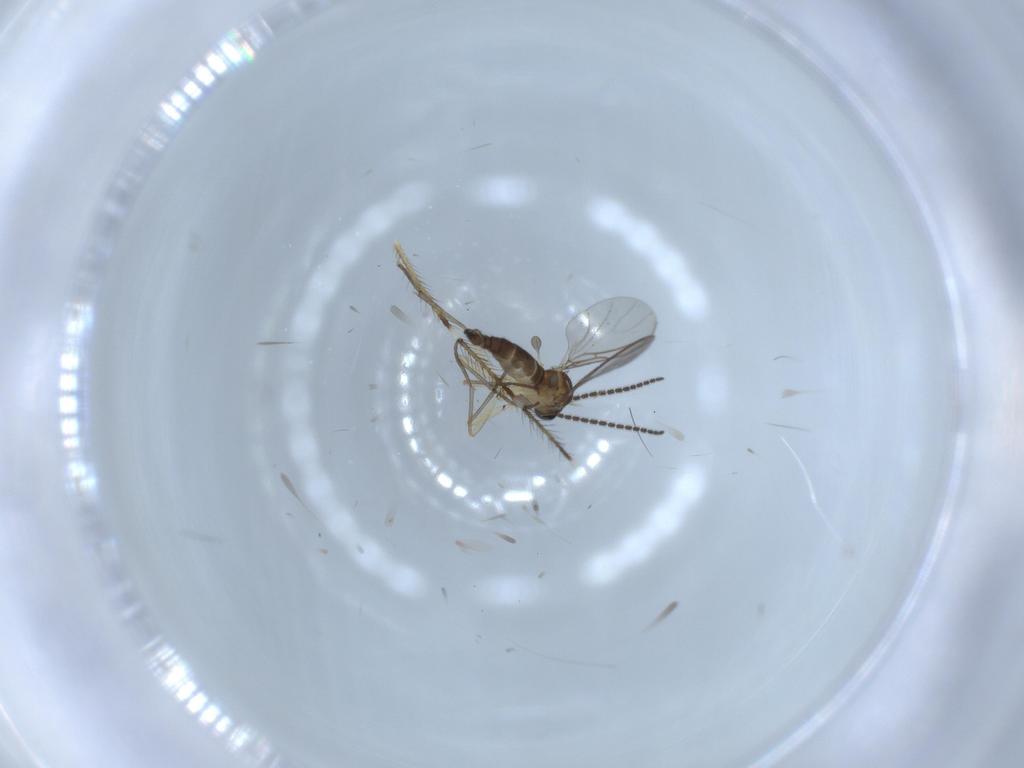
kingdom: Animalia
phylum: Arthropoda
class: Insecta
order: Diptera
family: Sciaridae
